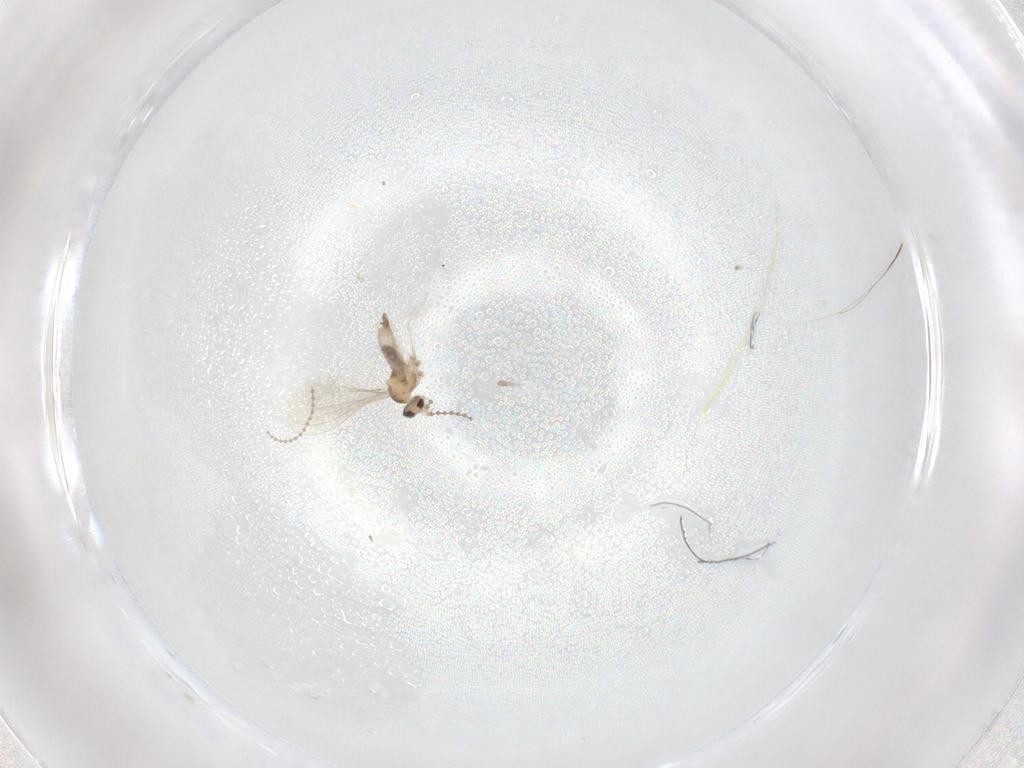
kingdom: Animalia
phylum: Arthropoda
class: Insecta
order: Diptera
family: Cecidomyiidae
